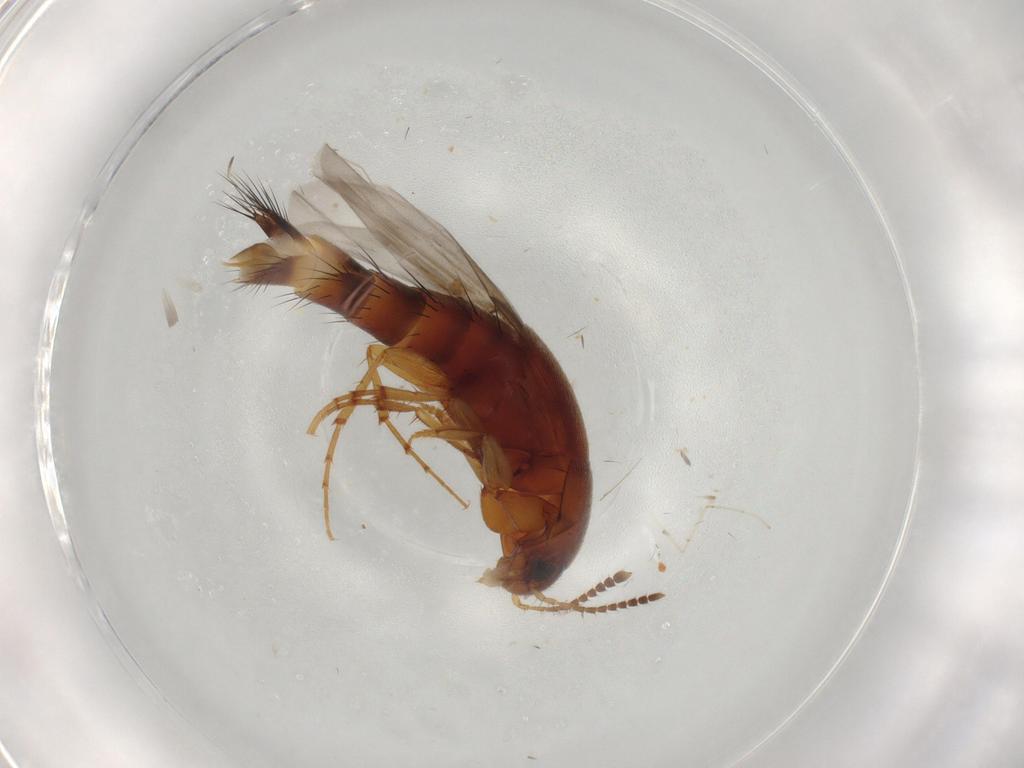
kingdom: Animalia
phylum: Arthropoda
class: Insecta
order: Coleoptera
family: Staphylinidae
